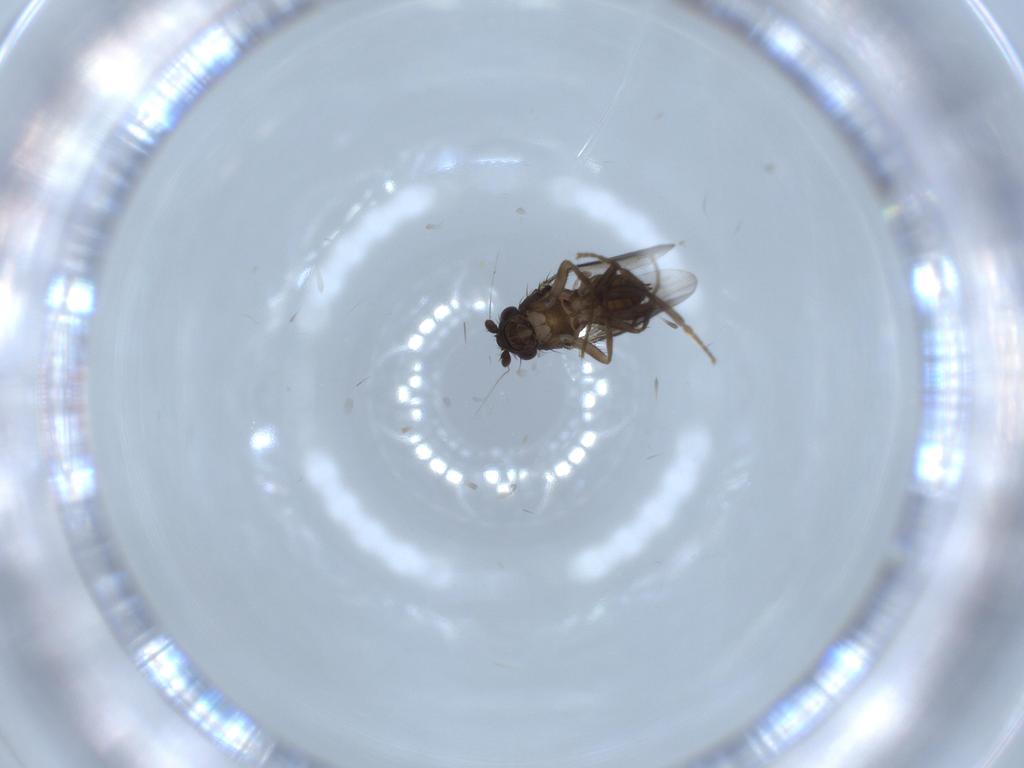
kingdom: Animalia
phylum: Arthropoda
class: Insecta
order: Diptera
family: Sphaeroceridae
